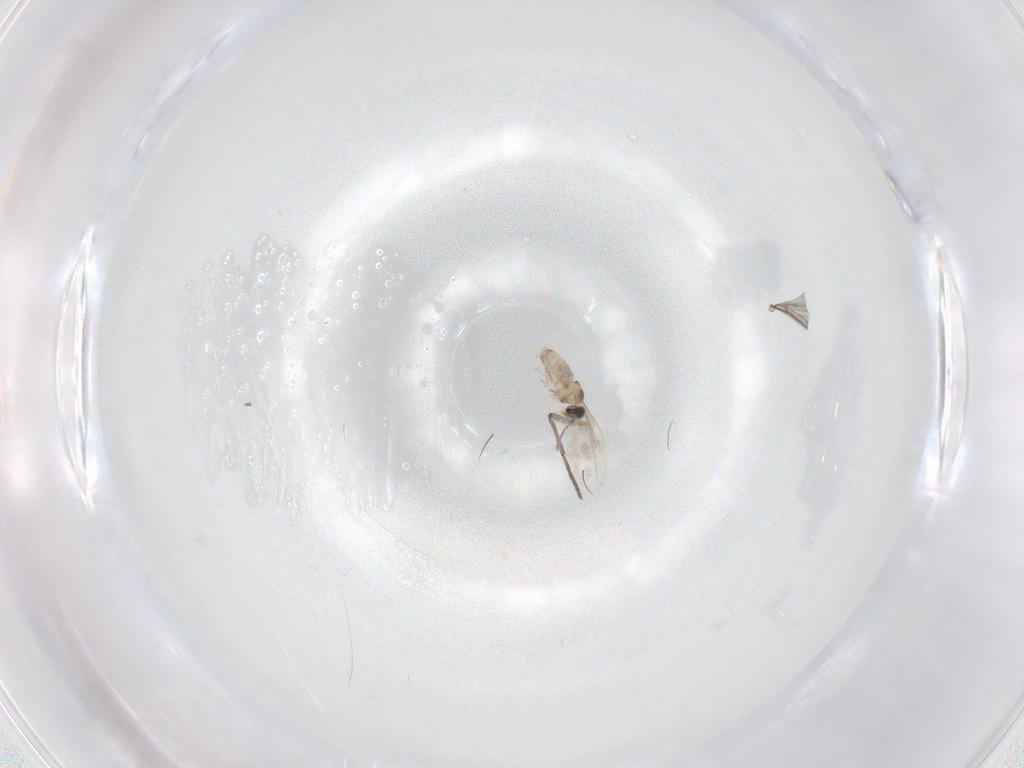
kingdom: Animalia
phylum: Arthropoda
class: Insecta
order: Diptera
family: Cecidomyiidae
